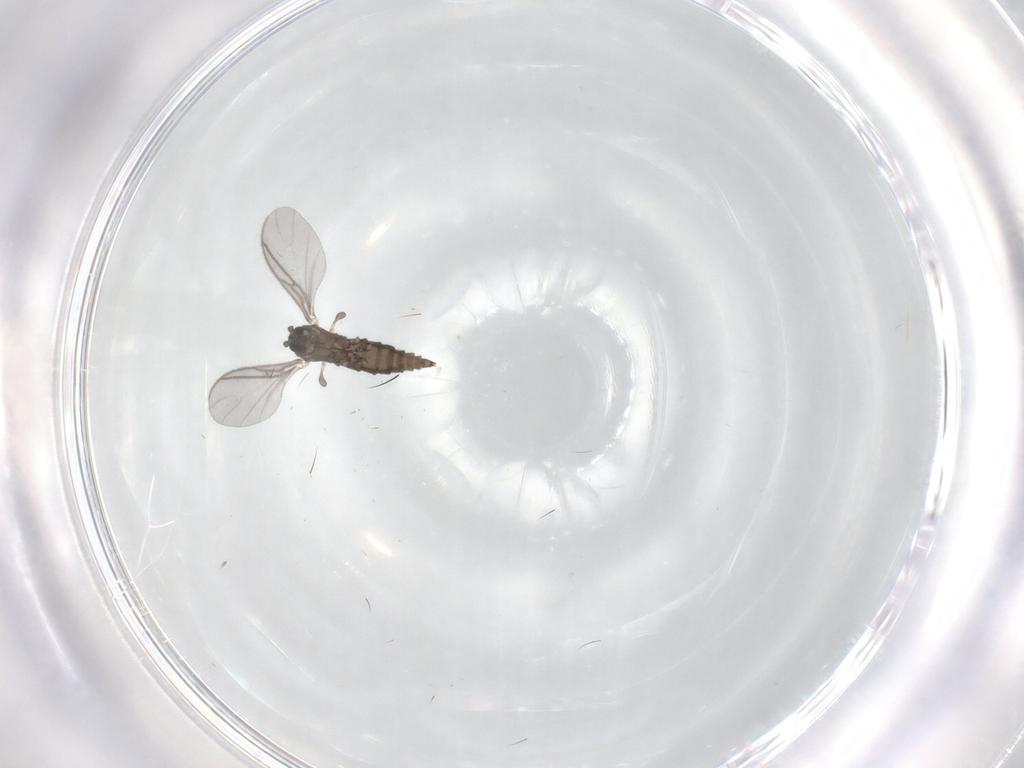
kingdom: Animalia
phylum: Arthropoda
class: Insecta
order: Diptera
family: Sciaridae
